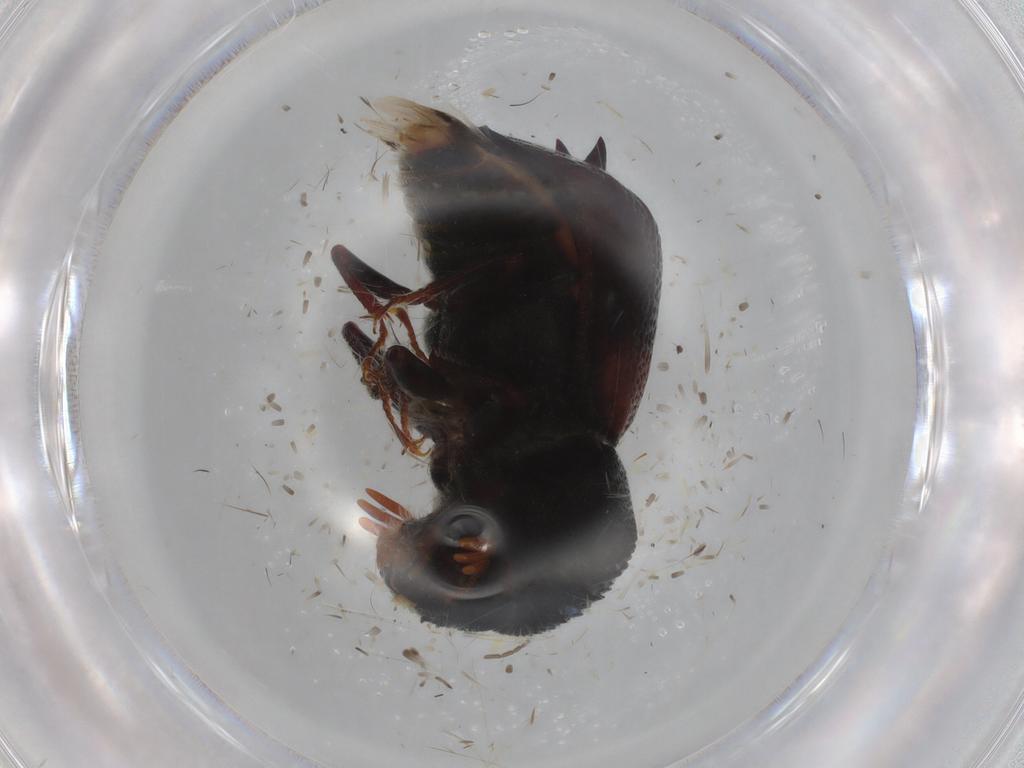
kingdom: Animalia
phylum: Arthropoda
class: Insecta
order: Coleoptera
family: Bostrichidae
